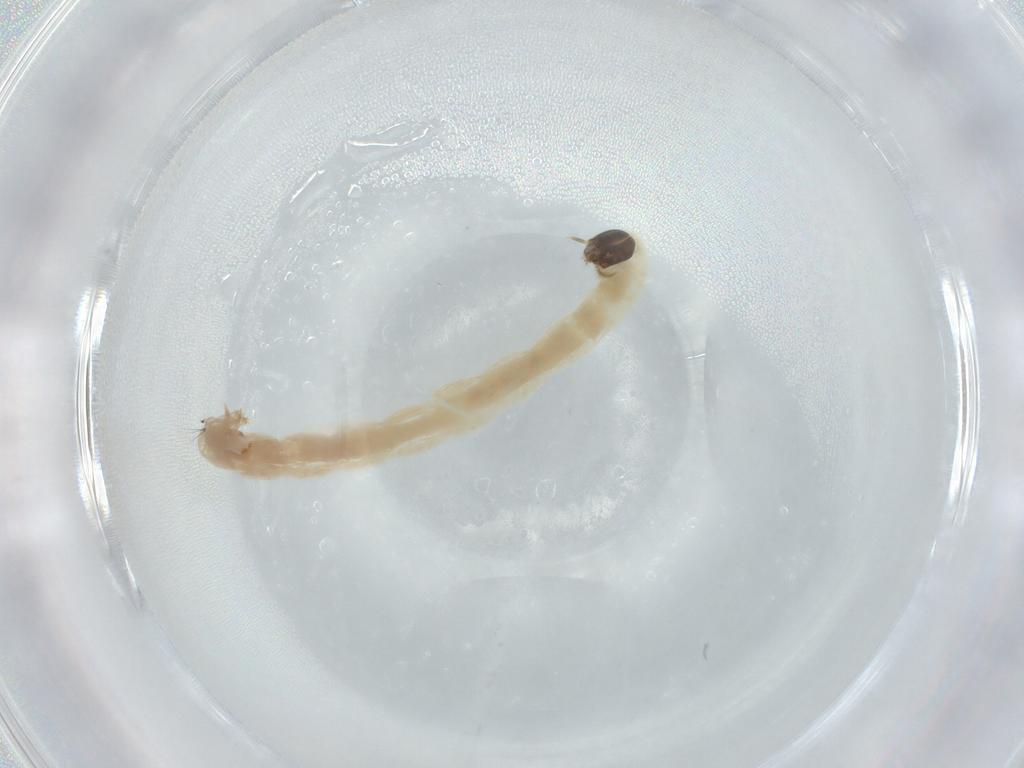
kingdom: Animalia
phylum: Arthropoda
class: Insecta
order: Diptera
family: Chironomidae
